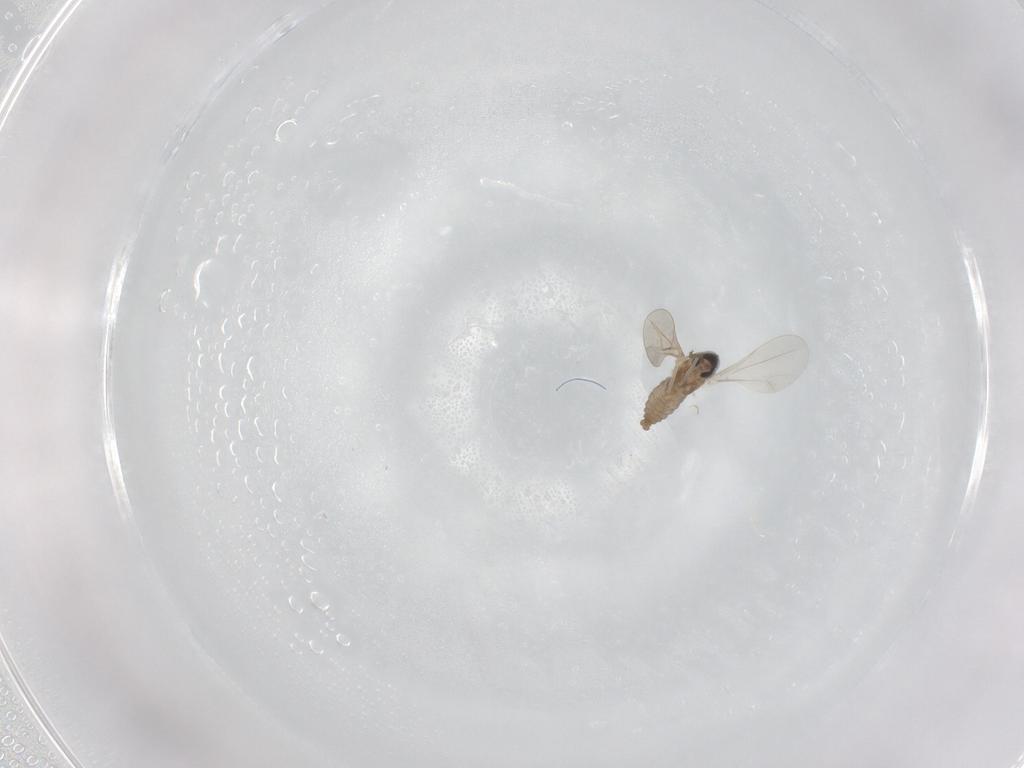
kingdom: Animalia
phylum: Arthropoda
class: Insecta
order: Diptera
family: Cecidomyiidae
